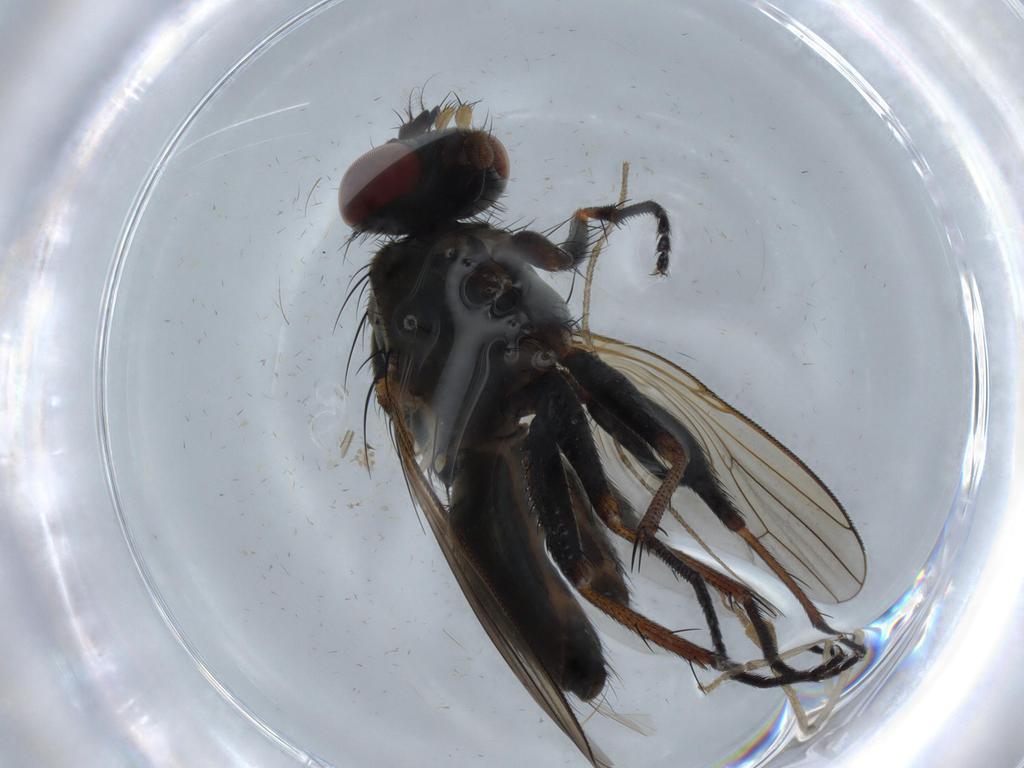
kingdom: Animalia
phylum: Arthropoda
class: Insecta
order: Diptera
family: Muscidae
